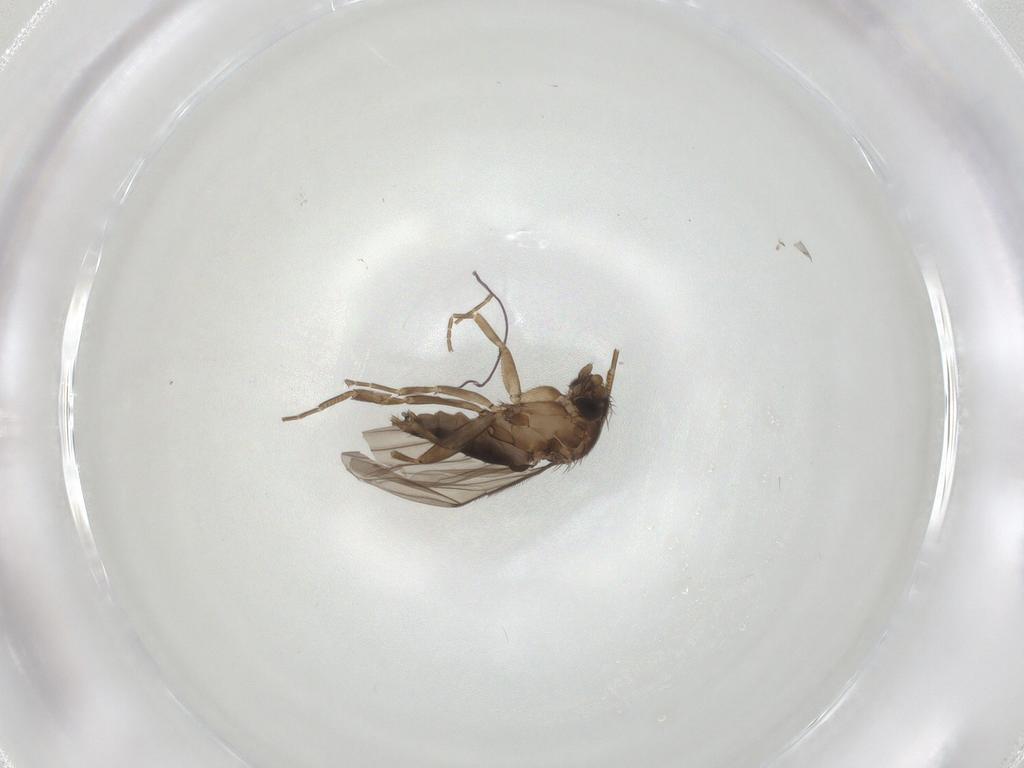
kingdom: Animalia
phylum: Arthropoda
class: Insecta
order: Diptera
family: Phoridae
